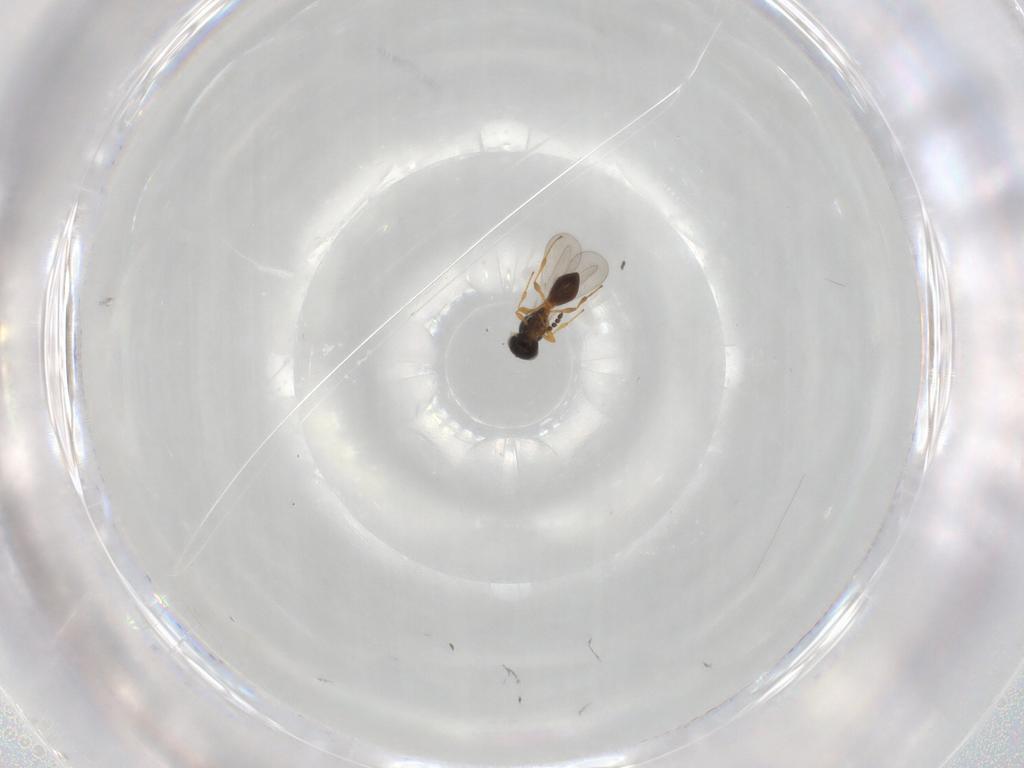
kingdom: Animalia
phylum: Arthropoda
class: Insecta
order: Hymenoptera
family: Platygastridae
